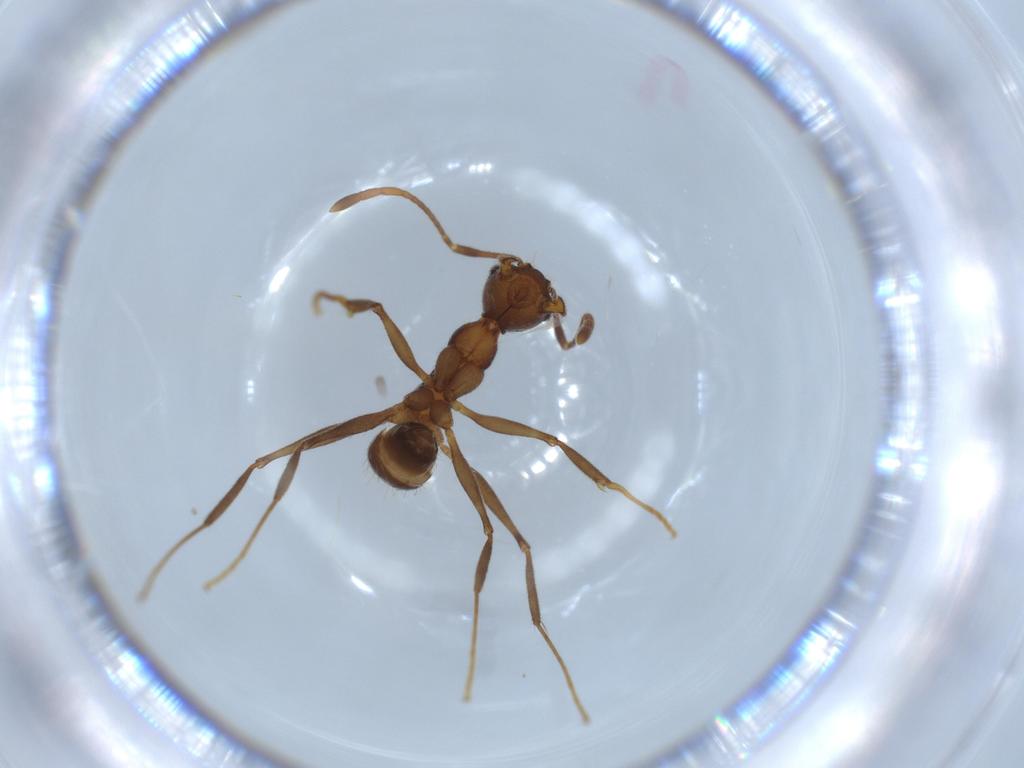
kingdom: Animalia
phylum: Arthropoda
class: Insecta
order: Hymenoptera
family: Formicidae
